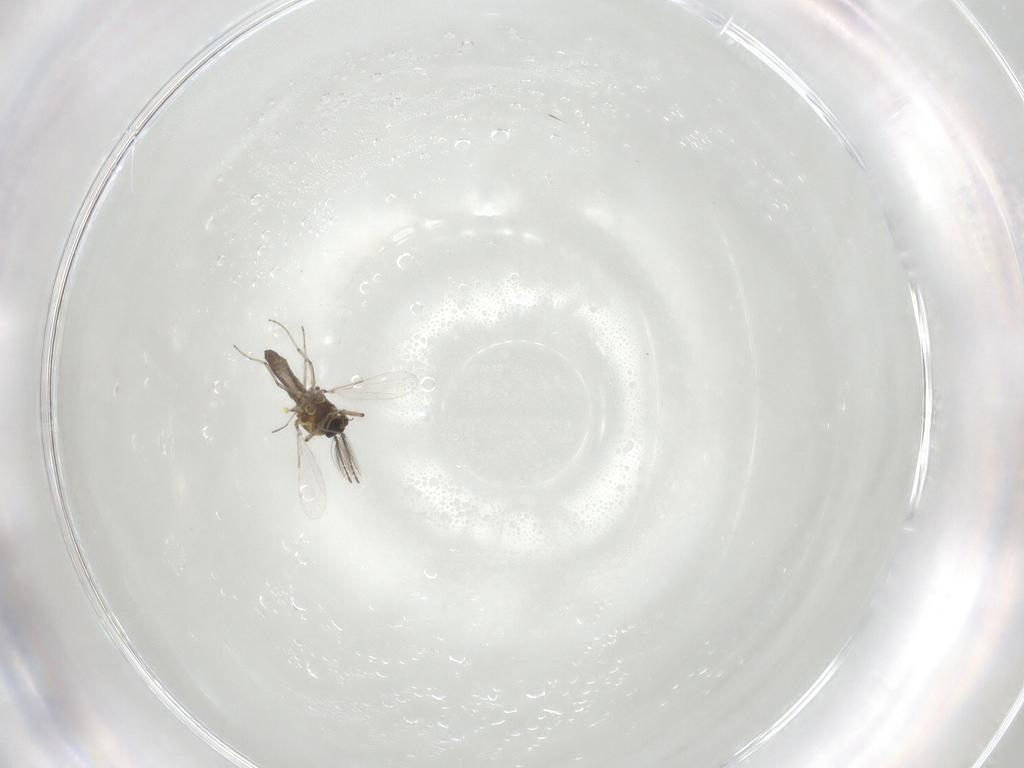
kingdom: Animalia
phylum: Arthropoda
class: Insecta
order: Diptera
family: Ceratopogonidae
